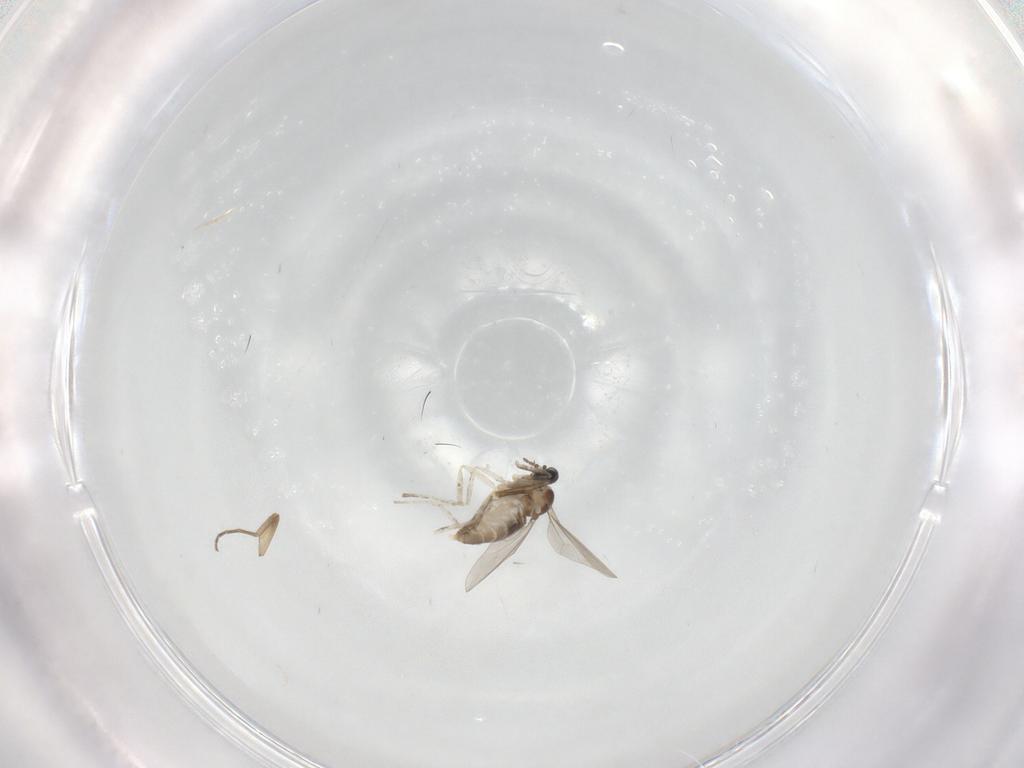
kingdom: Animalia
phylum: Arthropoda
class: Insecta
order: Diptera
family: Phoridae
